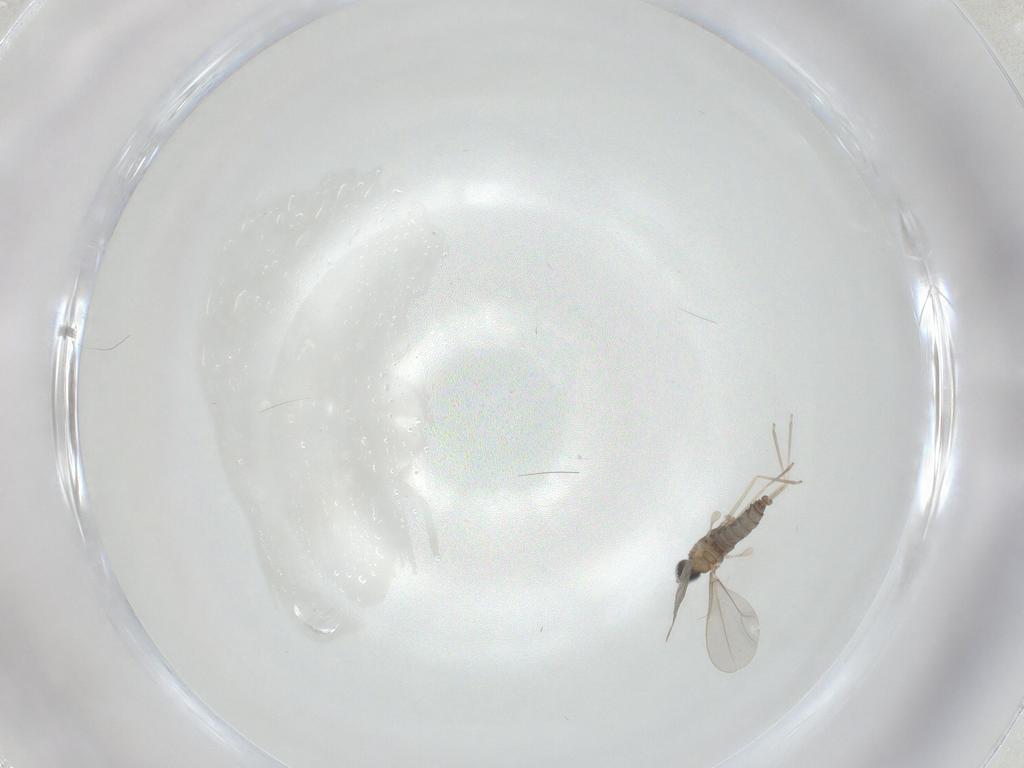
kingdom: Animalia
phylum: Arthropoda
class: Insecta
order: Diptera
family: Cecidomyiidae
